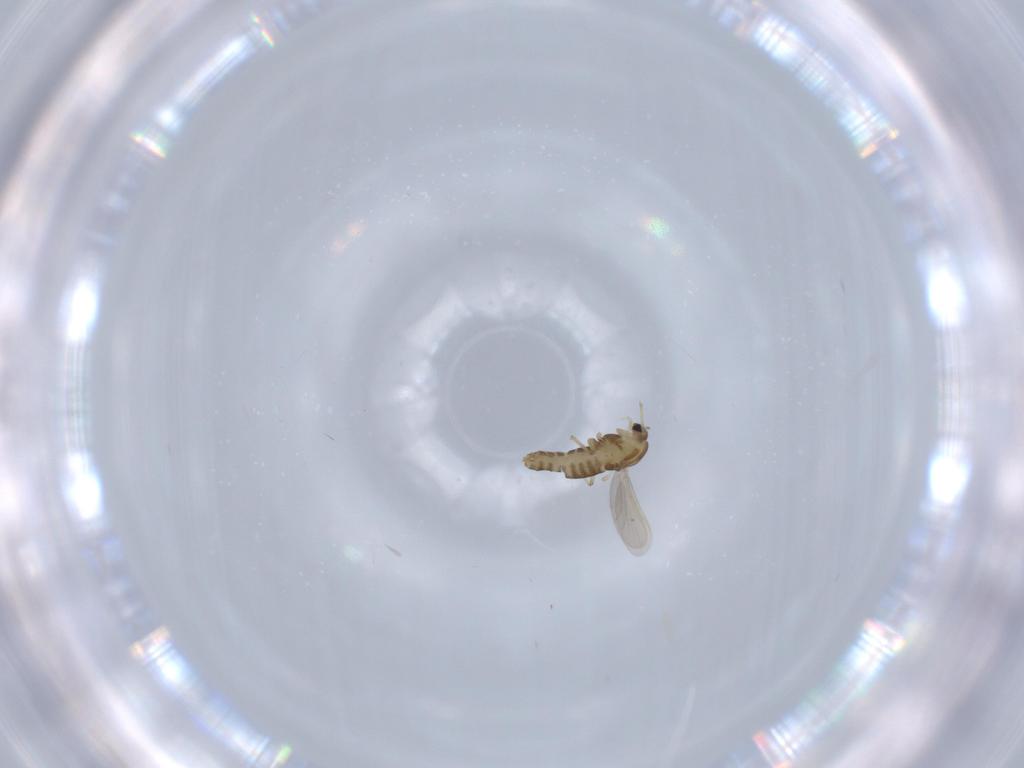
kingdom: Animalia
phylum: Arthropoda
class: Insecta
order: Diptera
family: Chironomidae
